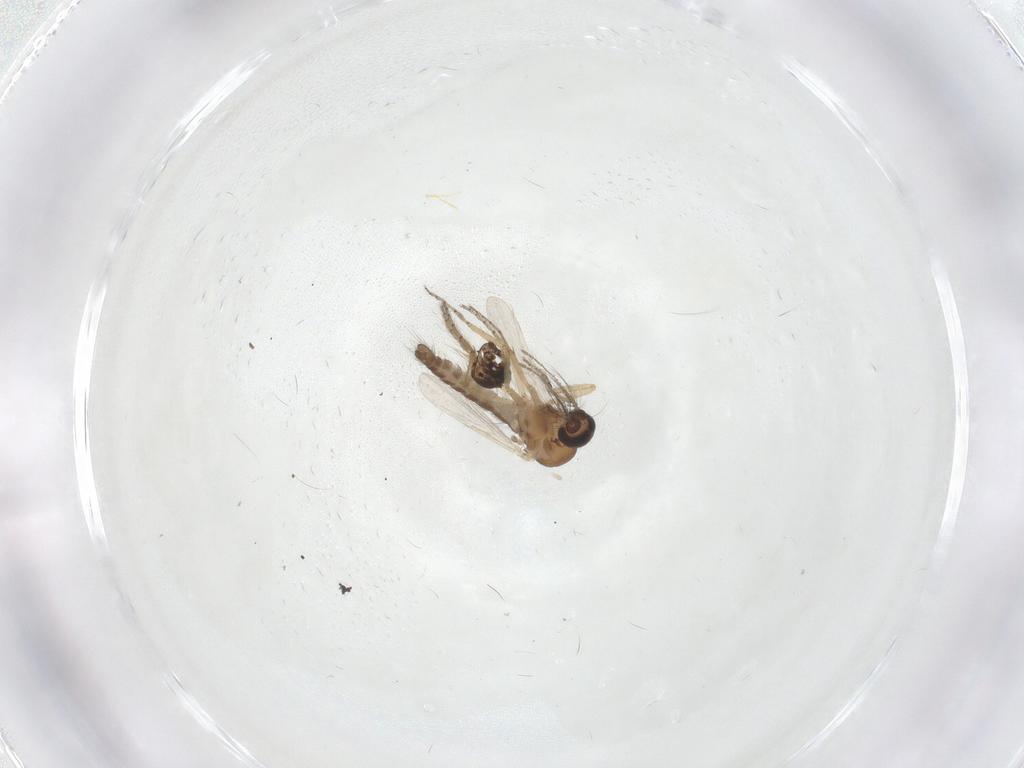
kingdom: Animalia
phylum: Arthropoda
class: Insecta
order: Diptera
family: Ceratopogonidae
